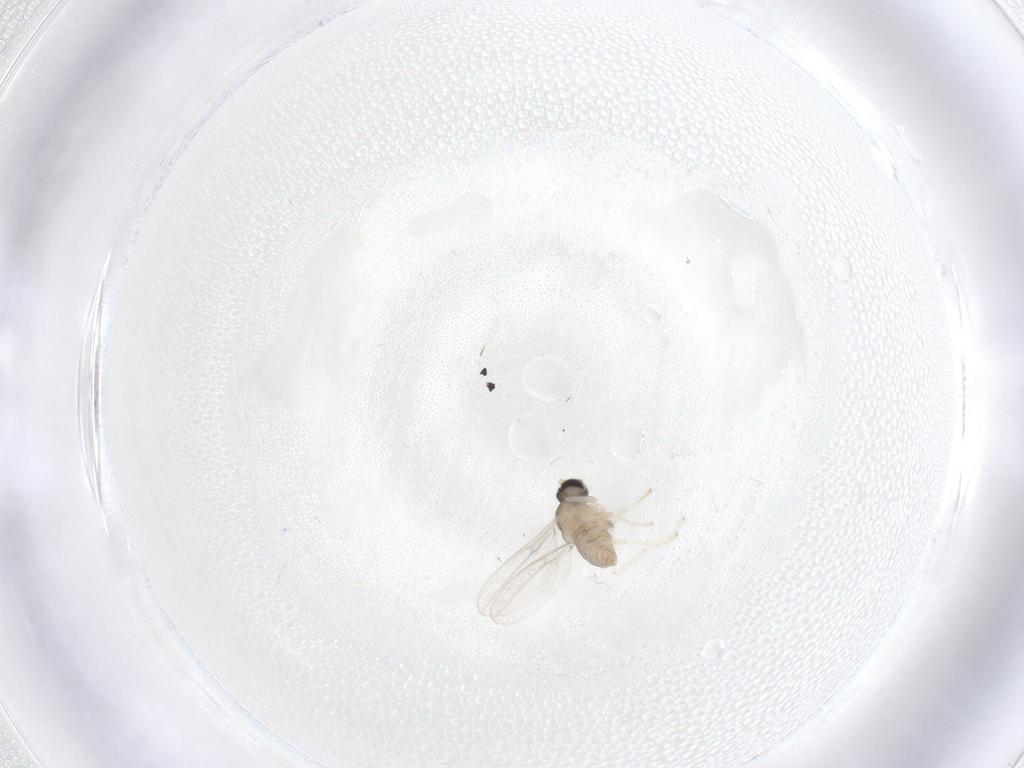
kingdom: Animalia
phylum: Arthropoda
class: Insecta
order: Diptera
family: Cecidomyiidae
